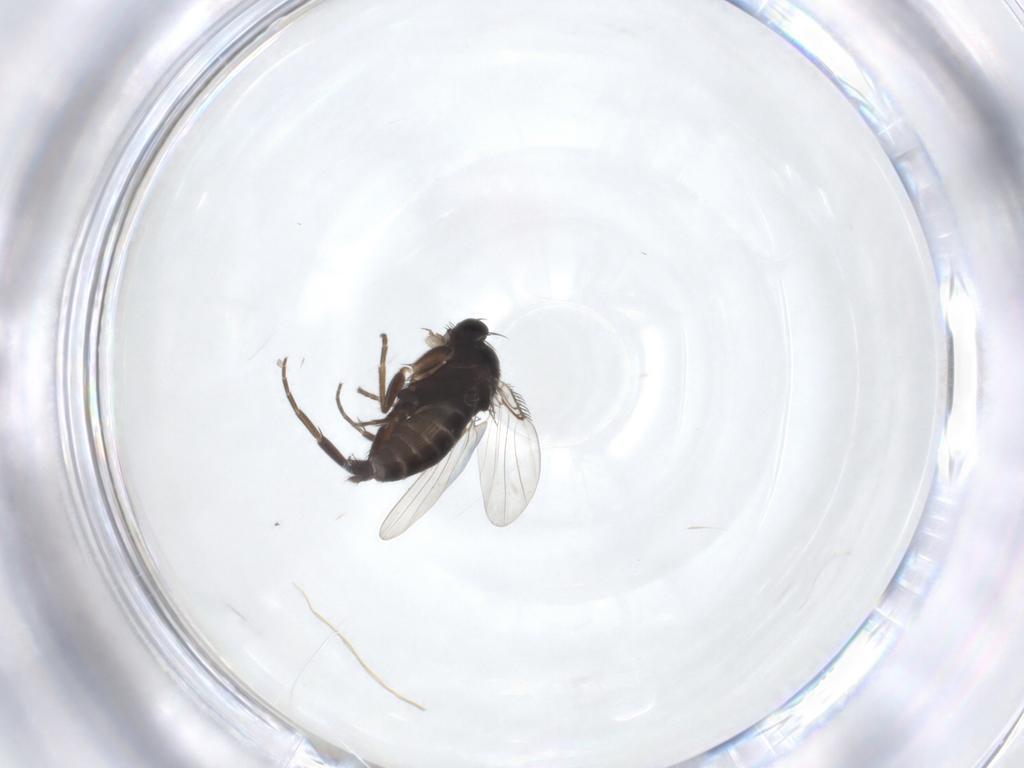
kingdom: Animalia
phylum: Arthropoda
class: Insecta
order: Diptera
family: Phoridae
